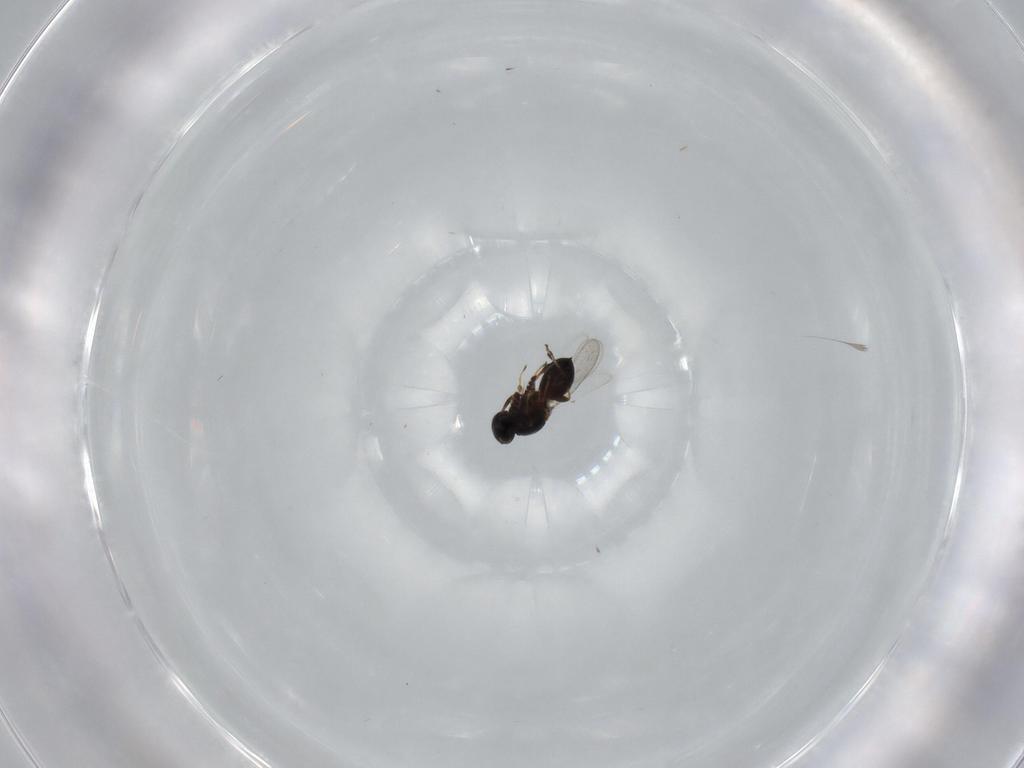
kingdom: Animalia
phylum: Arthropoda
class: Insecta
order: Hymenoptera
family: Platygastridae
